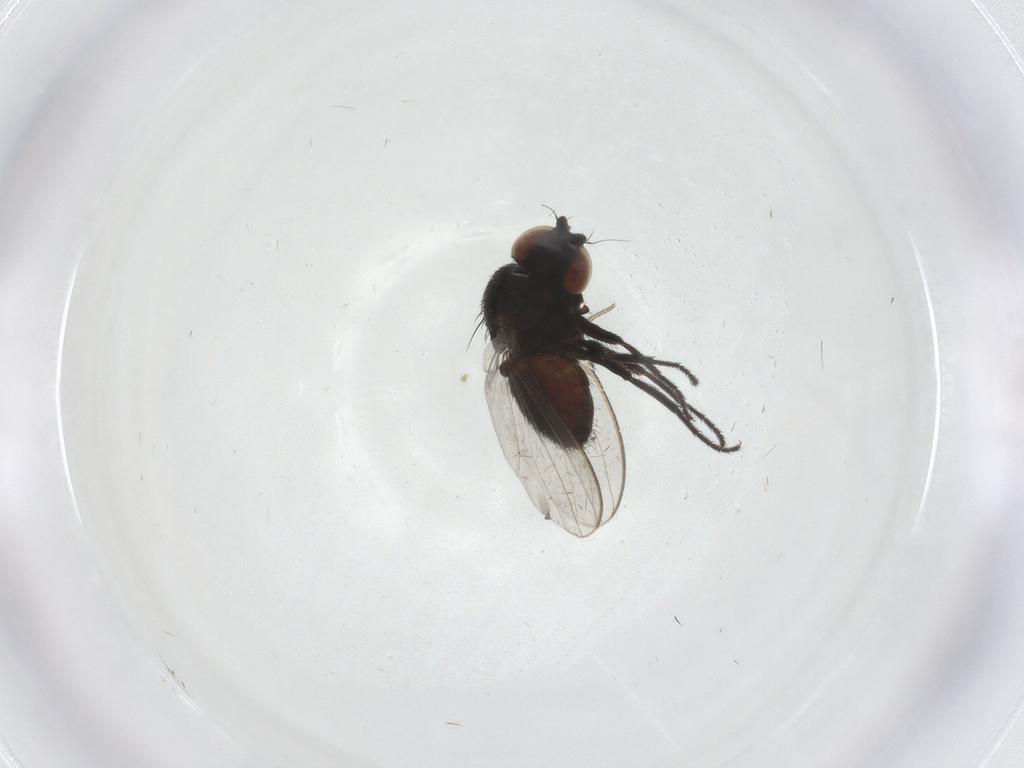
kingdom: Animalia
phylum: Arthropoda
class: Insecta
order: Diptera
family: Phoridae
